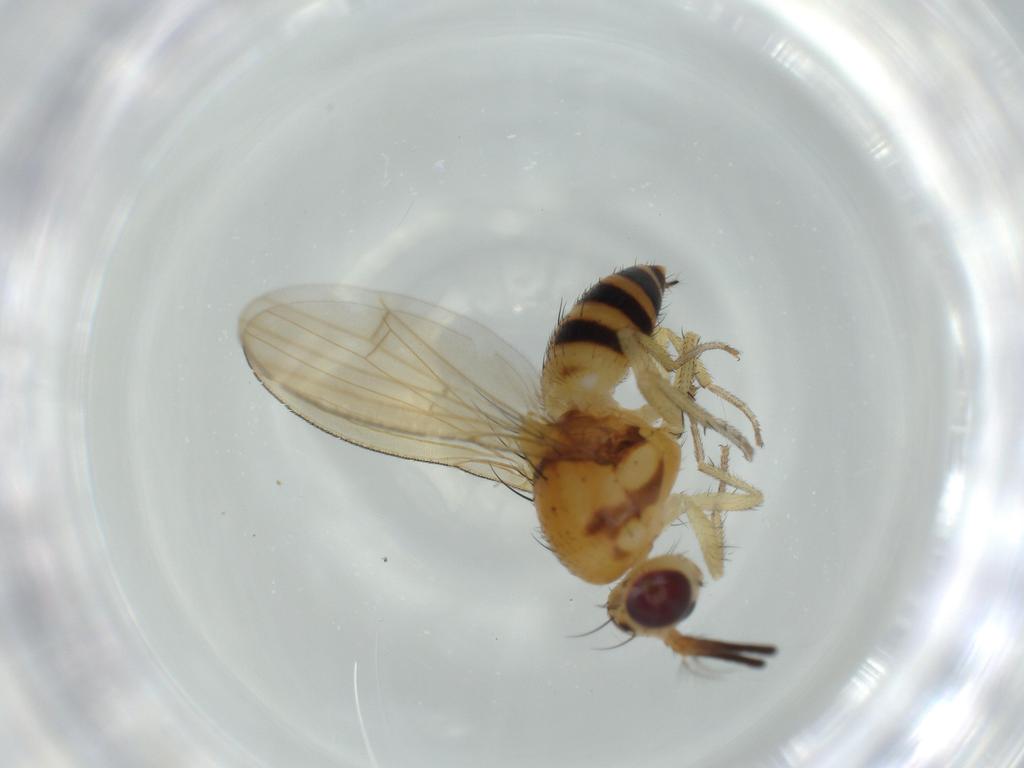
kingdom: Animalia
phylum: Arthropoda
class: Insecta
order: Diptera
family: Lauxaniidae
